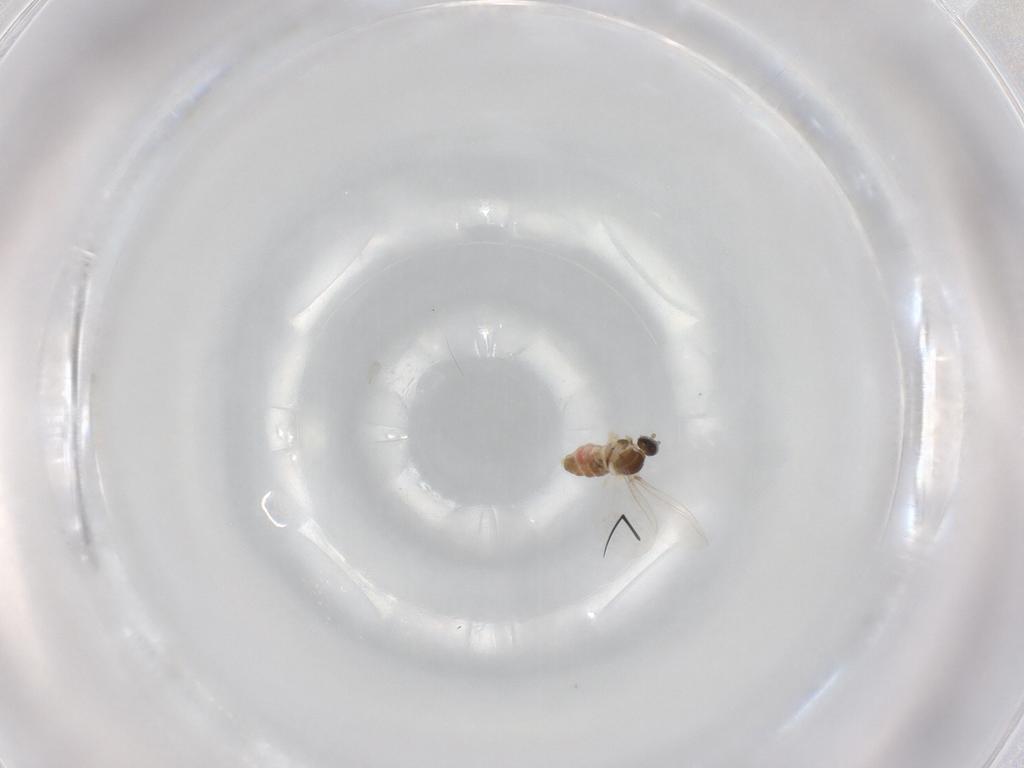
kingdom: Animalia
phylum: Arthropoda
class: Insecta
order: Diptera
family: Cecidomyiidae
